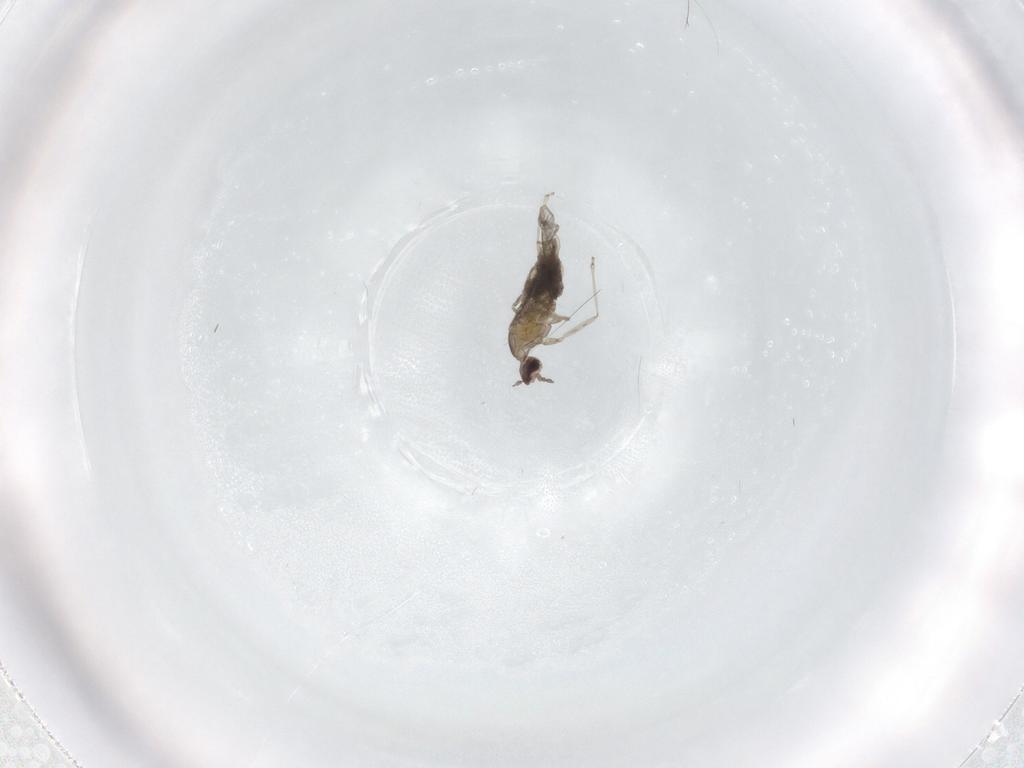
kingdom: Animalia
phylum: Arthropoda
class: Insecta
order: Diptera
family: Cecidomyiidae
